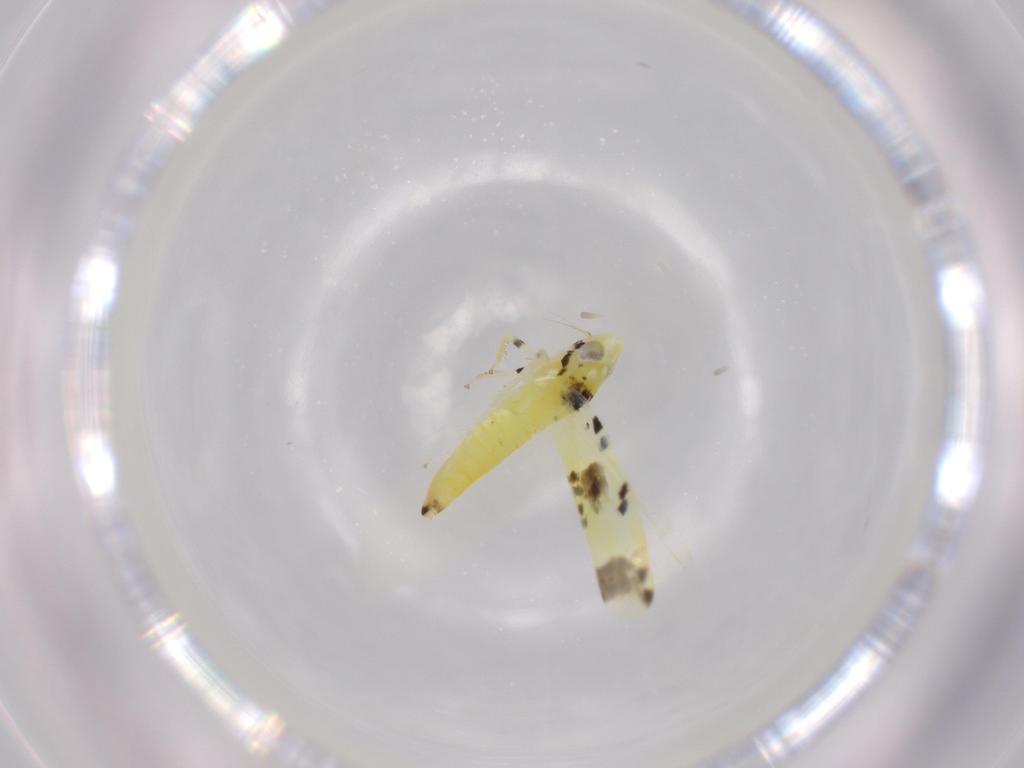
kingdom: Animalia
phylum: Arthropoda
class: Insecta
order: Hemiptera
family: Cicadellidae
